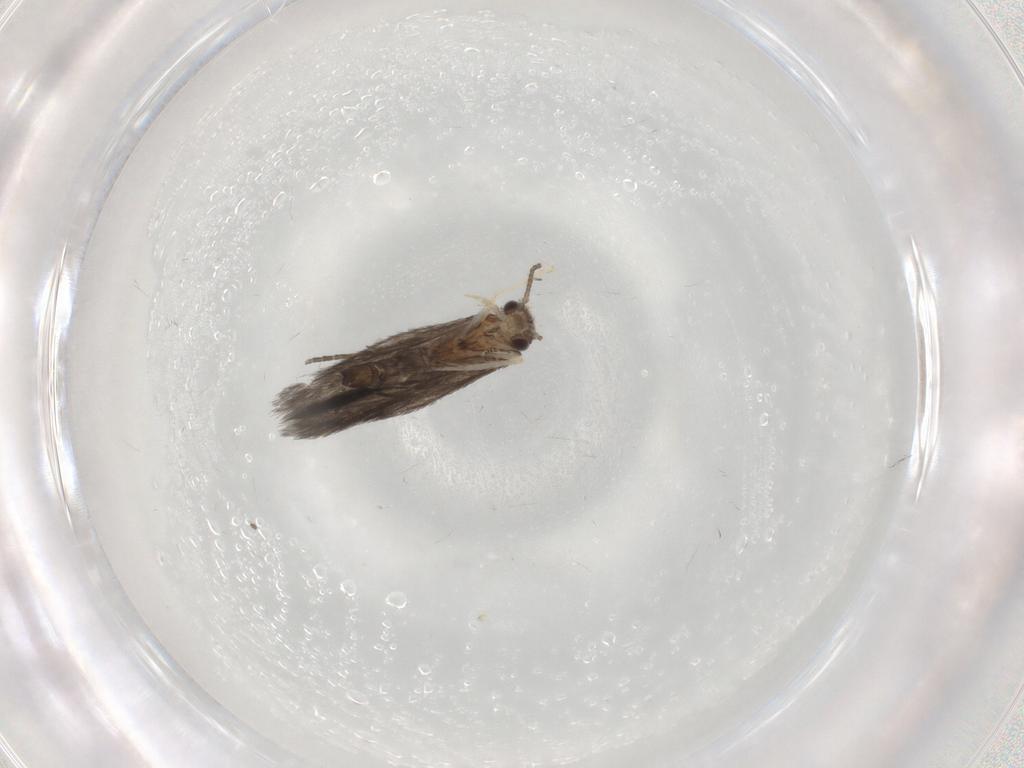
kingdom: Animalia
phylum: Arthropoda
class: Insecta
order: Trichoptera
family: Hydroptilidae
